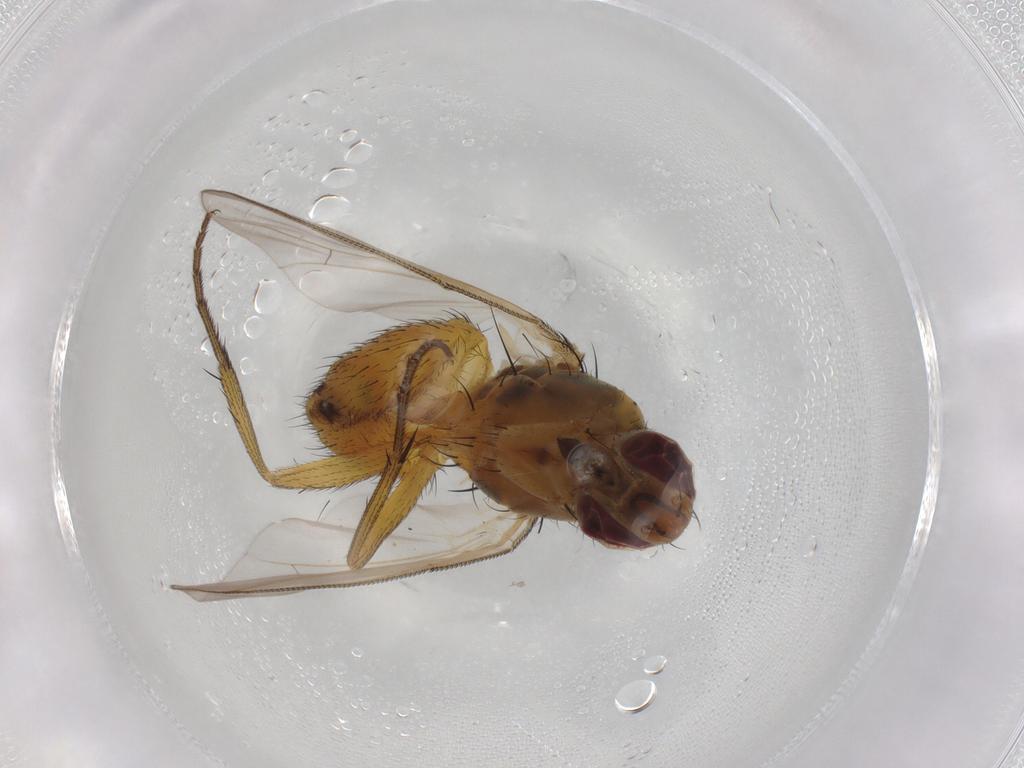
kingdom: Animalia
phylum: Arthropoda
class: Insecta
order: Diptera
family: Muscidae
